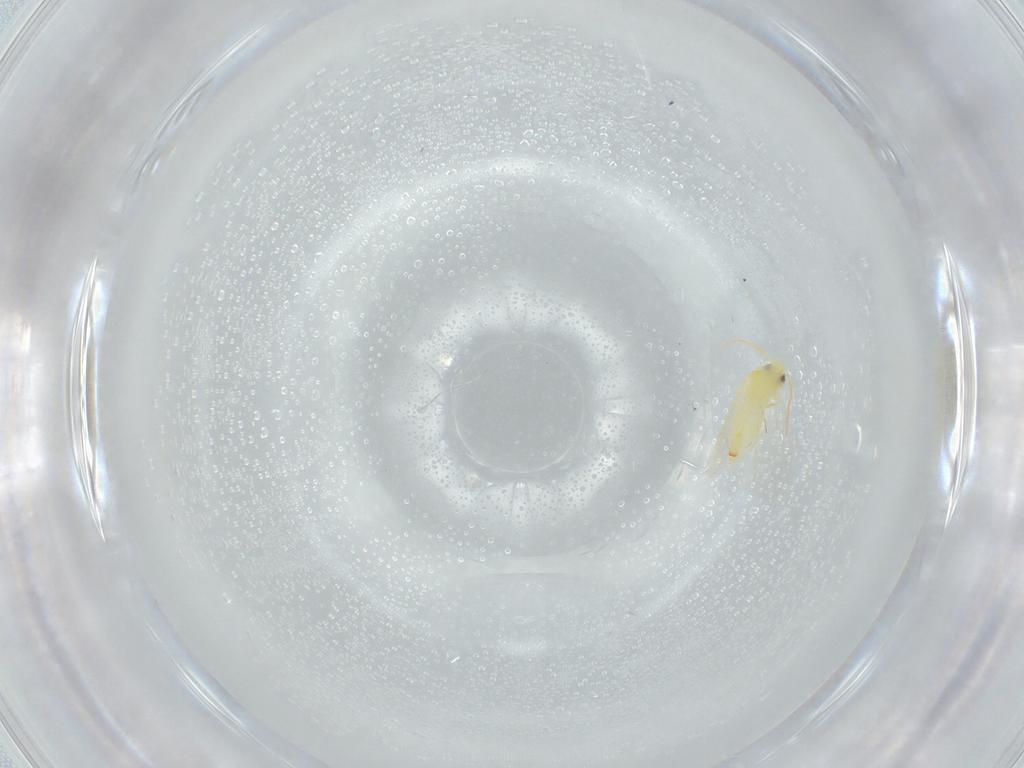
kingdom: Animalia
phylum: Arthropoda
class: Insecta
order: Hemiptera
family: Aleyrodidae
